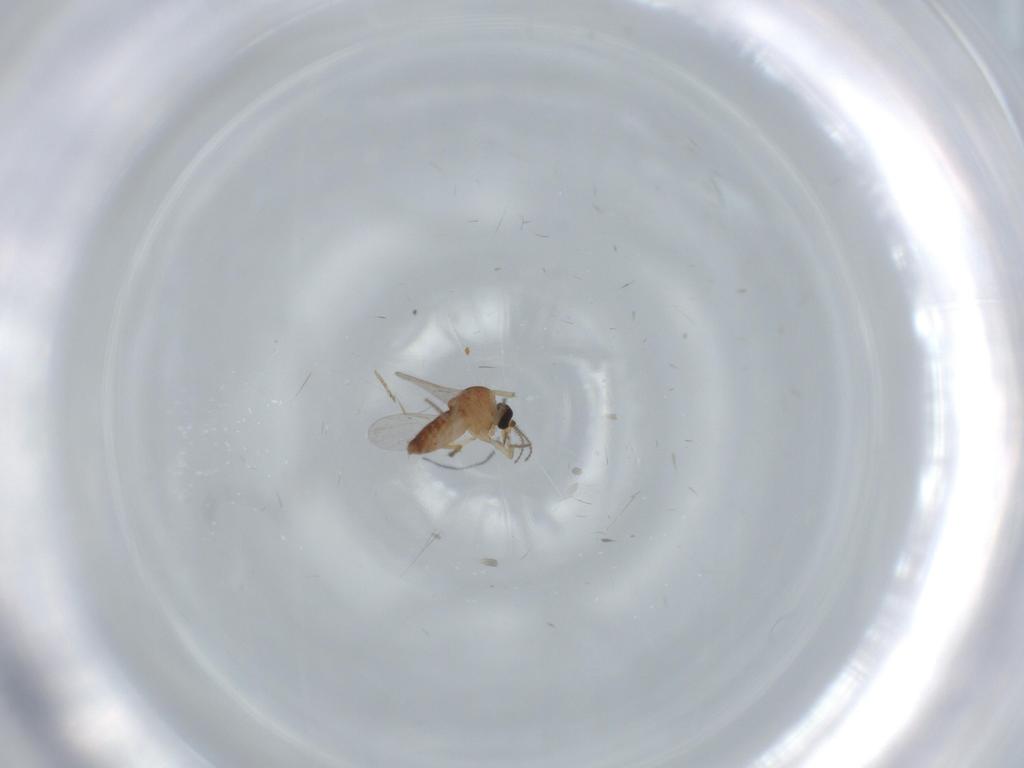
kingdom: Animalia
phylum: Arthropoda
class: Insecta
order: Diptera
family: Ceratopogonidae
